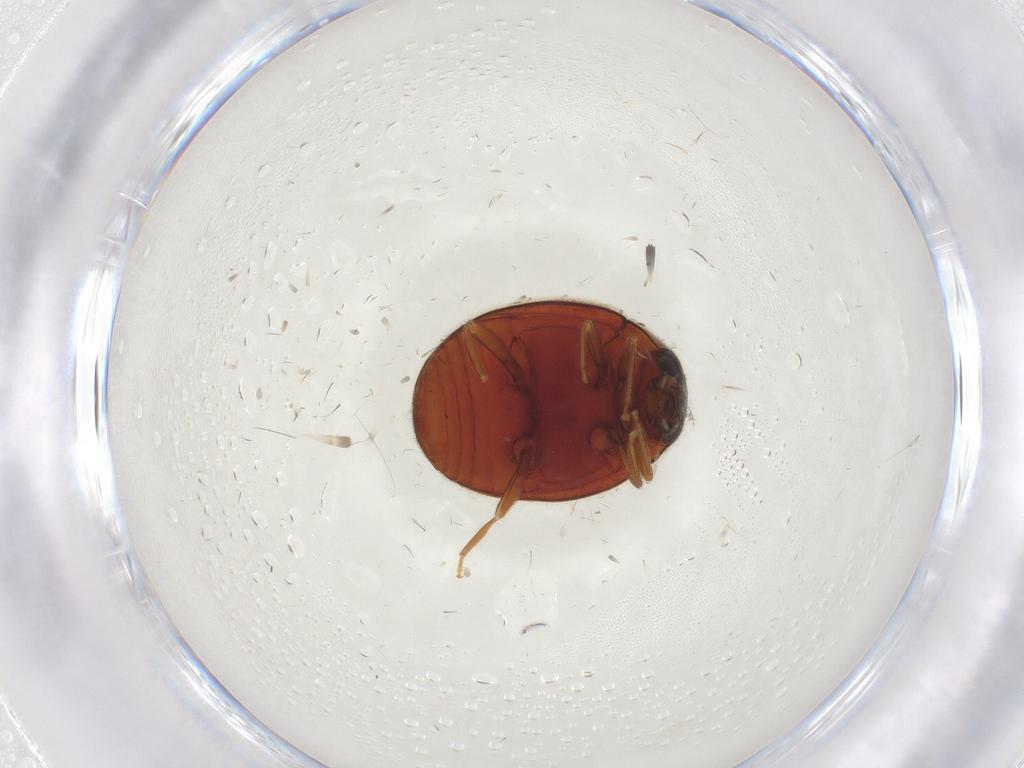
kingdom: Animalia
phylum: Arthropoda
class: Insecta
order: Coleoptera
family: Coccinellidae
